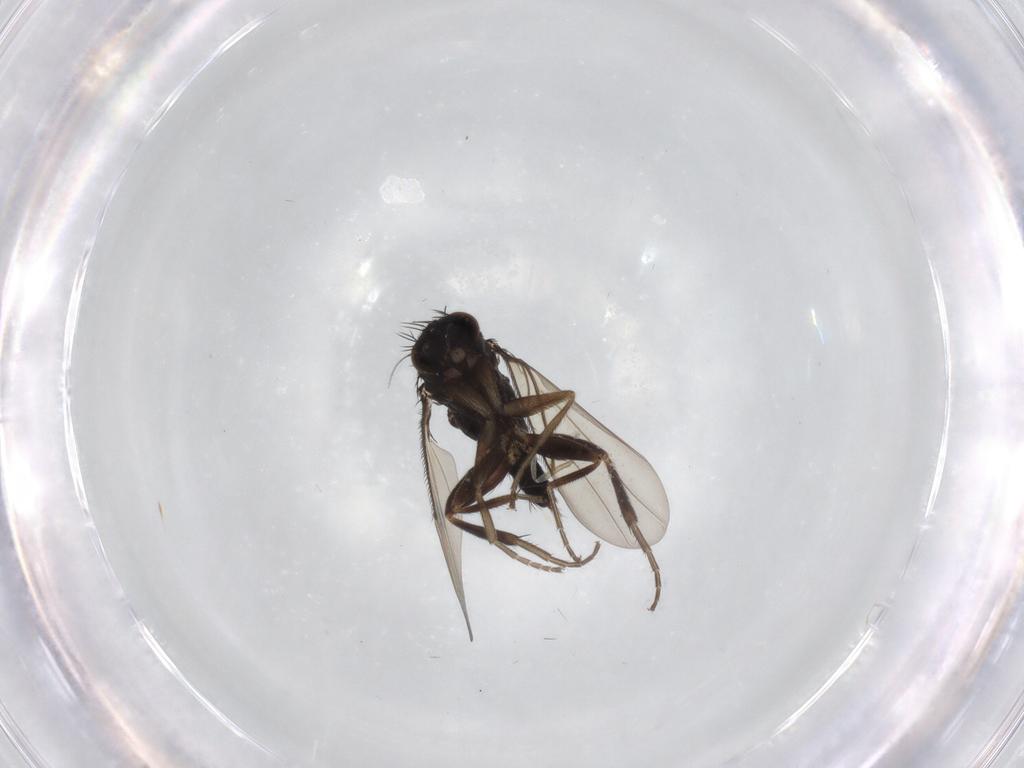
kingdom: Animalia
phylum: Arthropoda
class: Insecta
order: Diptera
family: Phoridae
